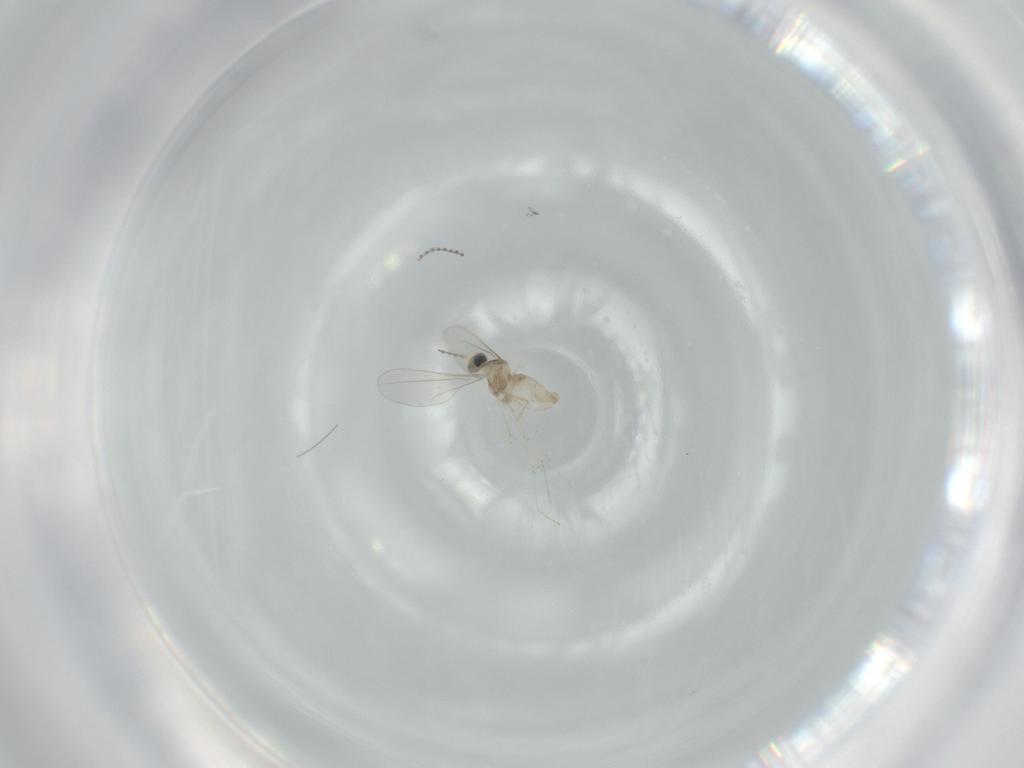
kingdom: Animalia
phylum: Arthropoda
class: Insecta
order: Diptera
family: Cecidomyiidae
